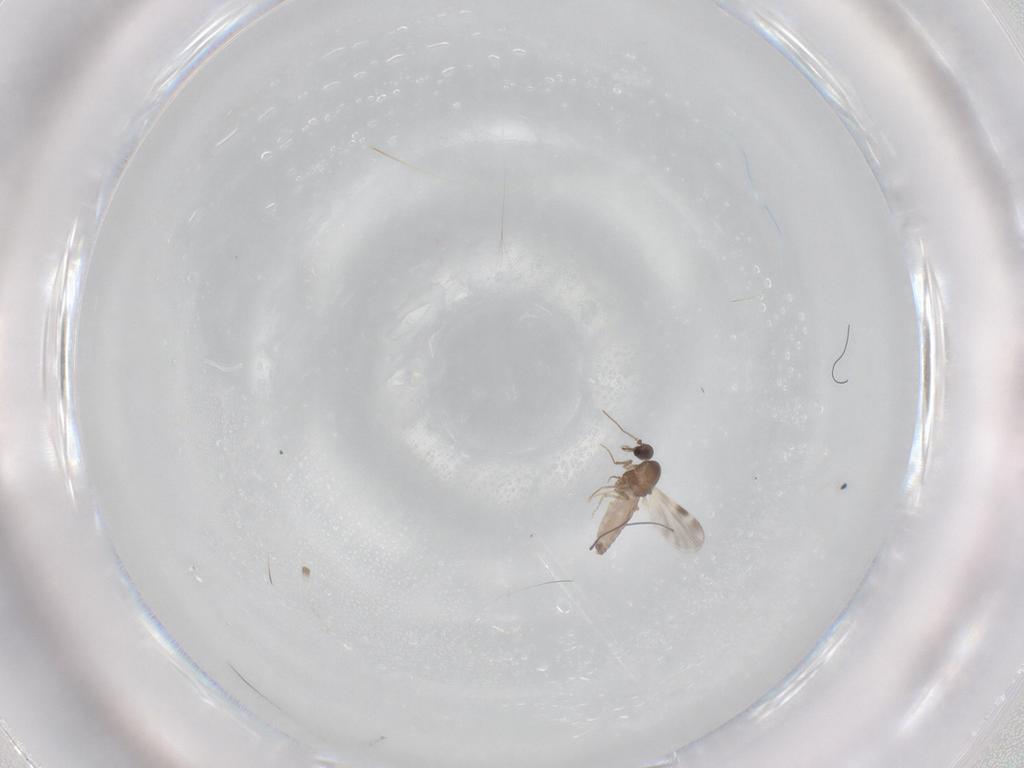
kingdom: Animalia
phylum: Arthropoda
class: Insecta
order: Diptera
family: Ceratopogonidae
